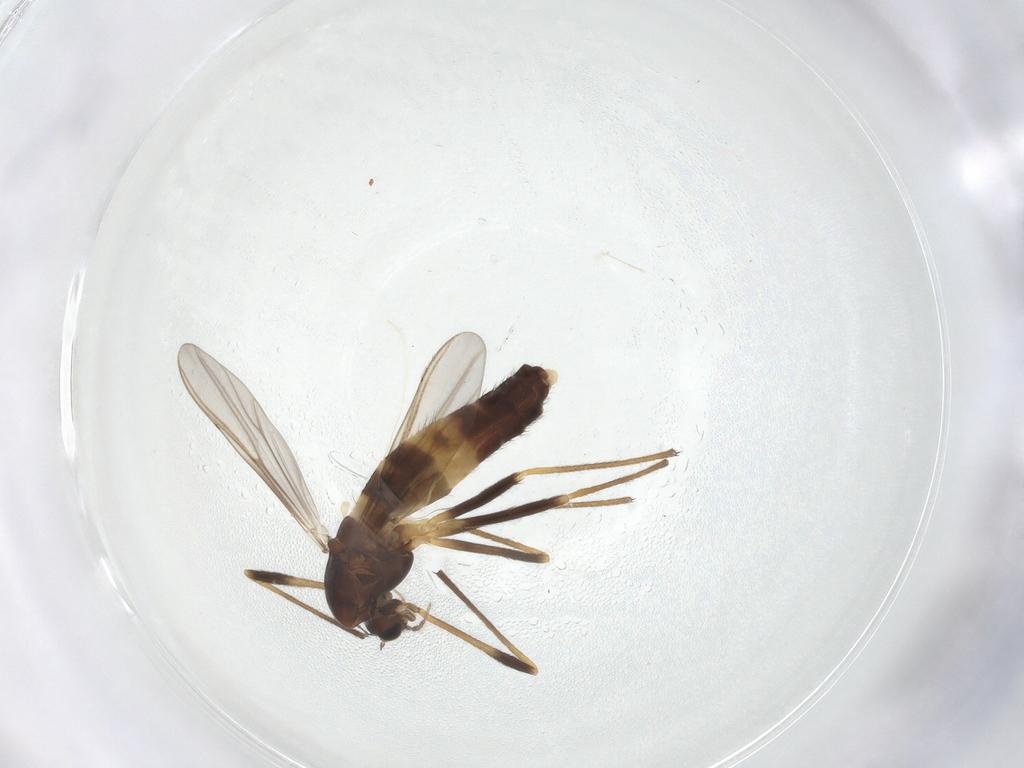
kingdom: Animalia
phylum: Arthropoda
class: Insecta
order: Diptera
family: Chironomidae
